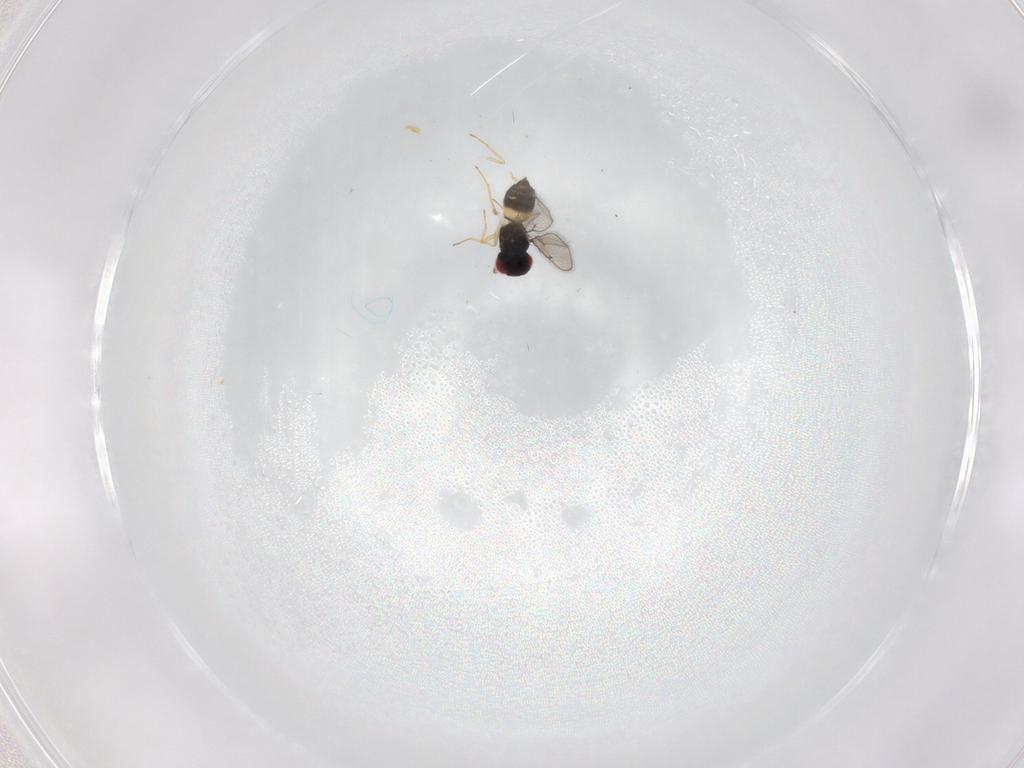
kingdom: Animalia
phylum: Arthropoda
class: Insecta
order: Hymenoptera
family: Eulophidae
